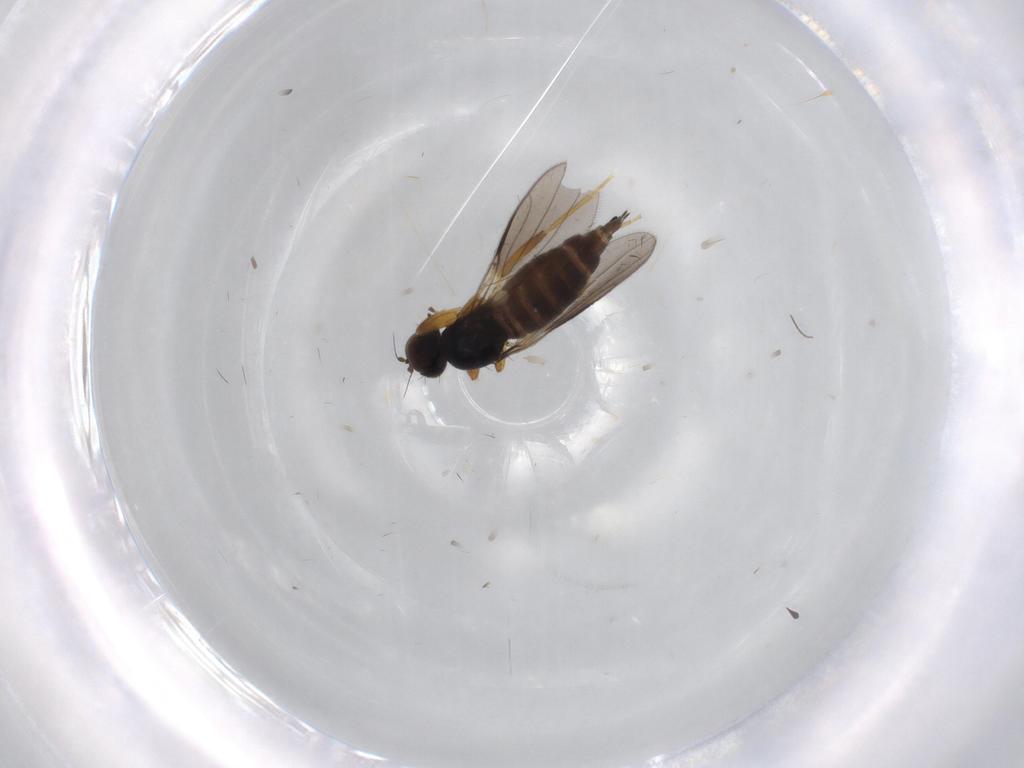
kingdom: Animalia
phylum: Arthropoda
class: Insecta
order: Diptera
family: Hybotidae
